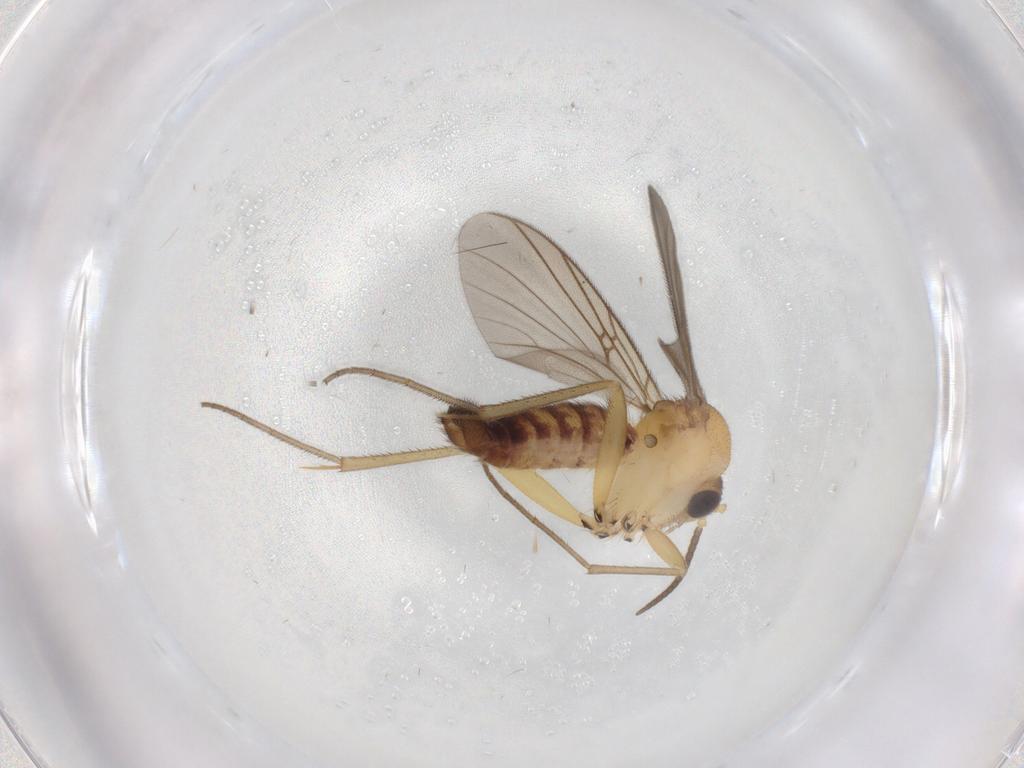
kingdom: Animalia
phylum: Arthropoda
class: Insecta
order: Diptera
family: Mycetophilidae
